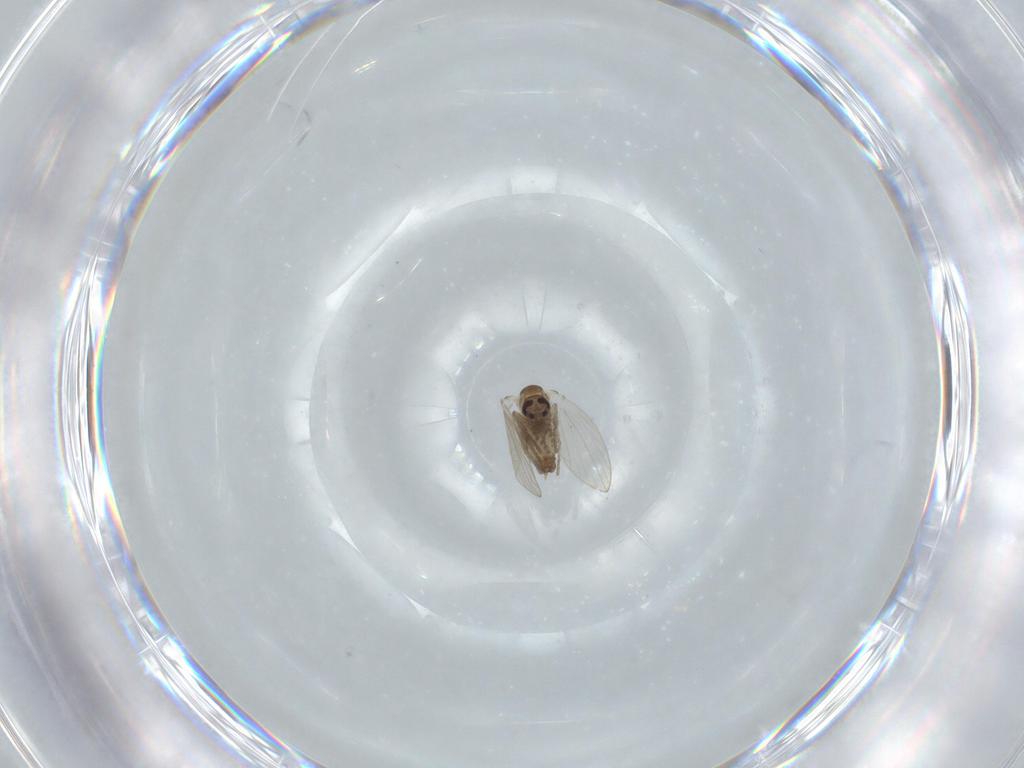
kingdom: Animalia
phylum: Arthropoda
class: Insecta
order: Diptera
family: Psychodidae
